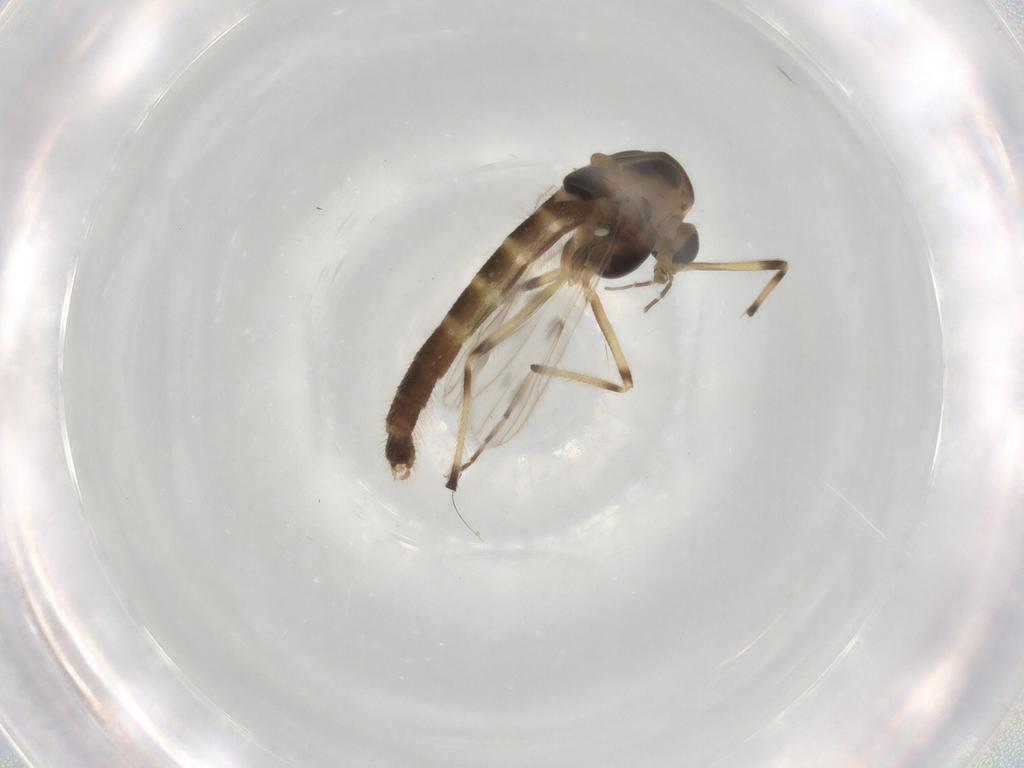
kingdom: Animalia
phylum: Arthropoda
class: Insecta
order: Diptera
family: Chironomidae
